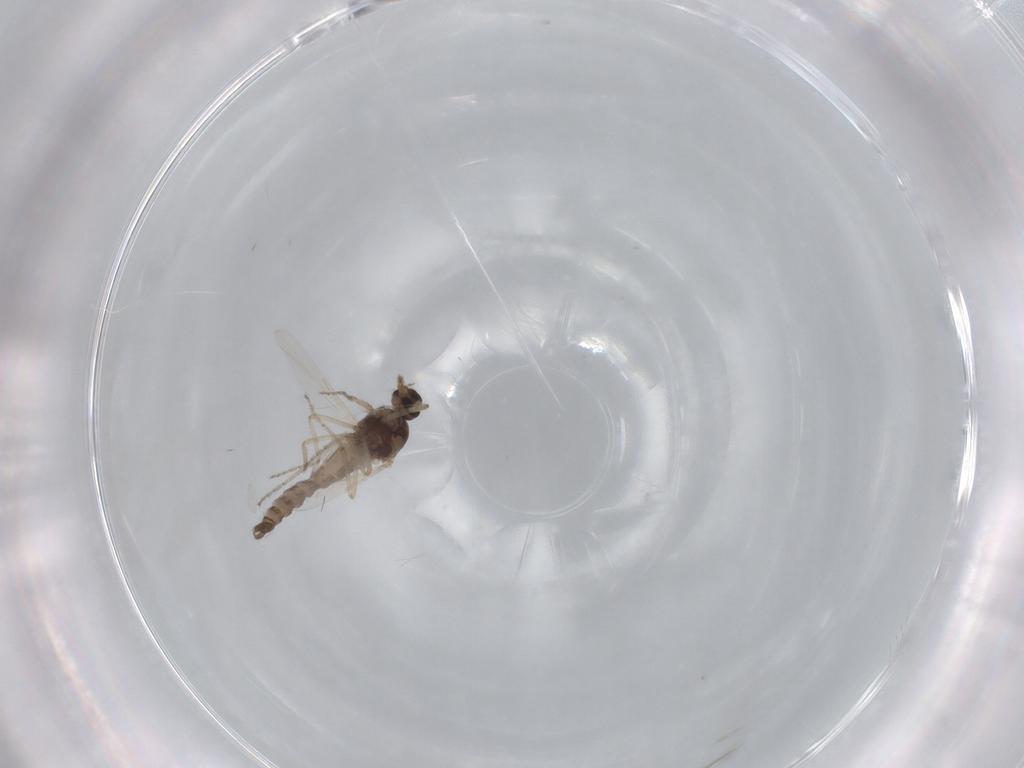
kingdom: Animalia
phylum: Arthropoda
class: Insecta
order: Diptera
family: Ceratopogonidae
